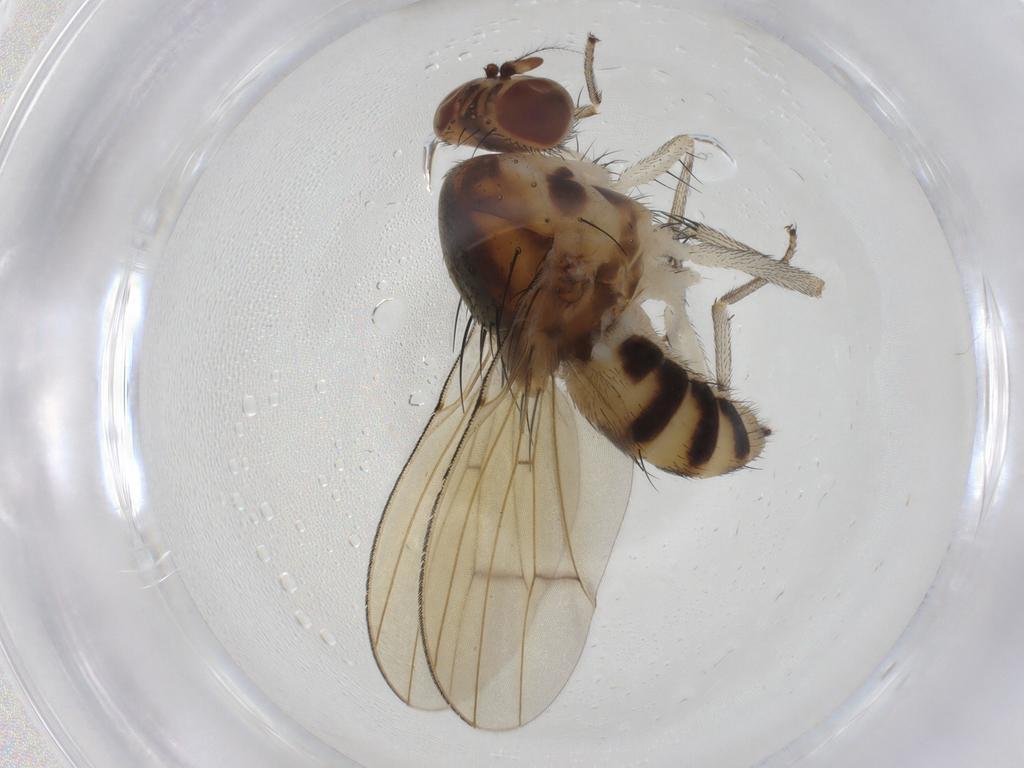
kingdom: Animalia
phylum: Arthropoda
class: Insecta
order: Diptera
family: Lauxaniidae
